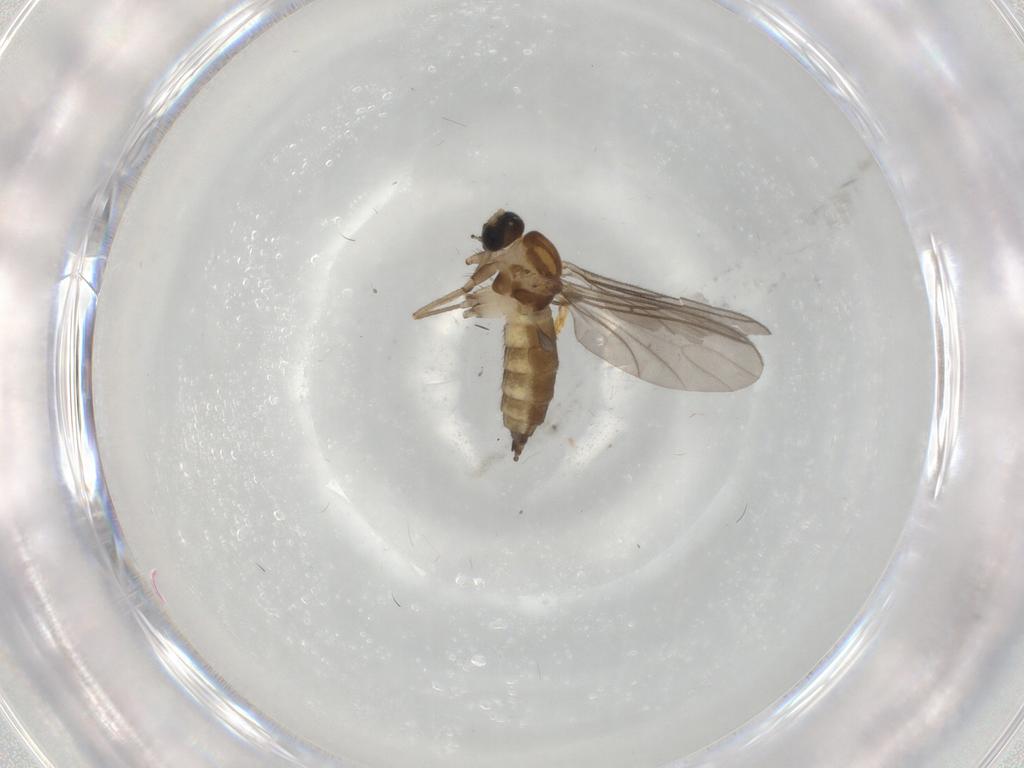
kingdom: Animalia
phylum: Arthropoda
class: Insecta
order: Diptera
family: Sciaridae
